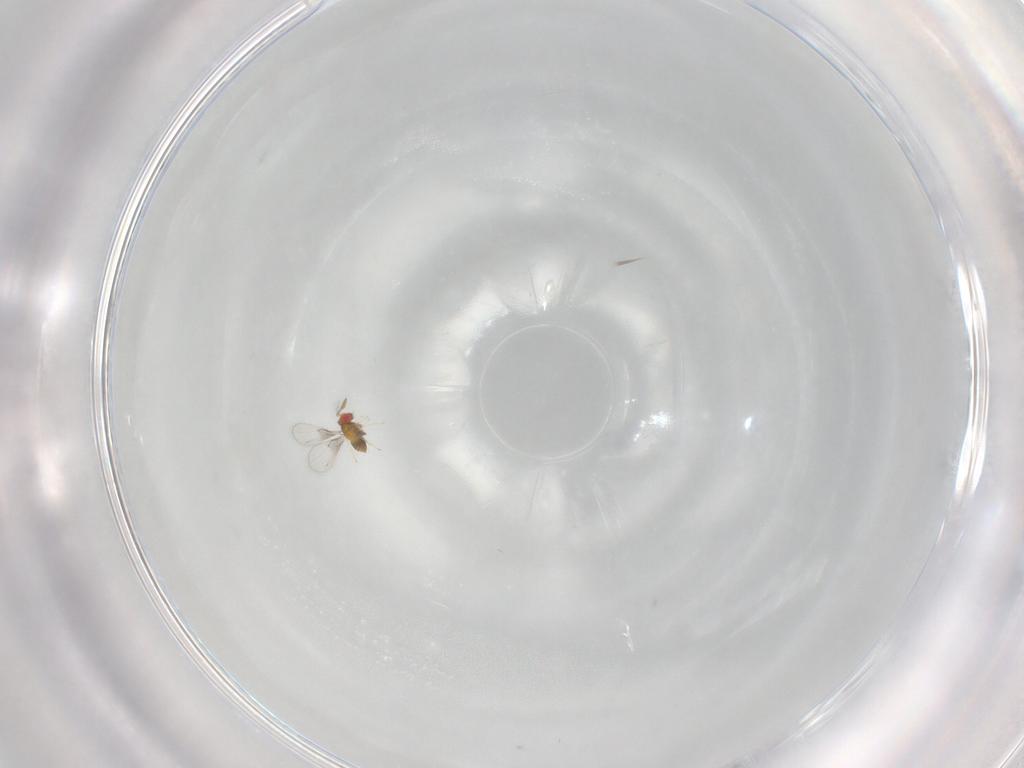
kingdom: Animalia
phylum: Arthropoda
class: Insecta
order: Hymenoptera
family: Trichogrammatidae
